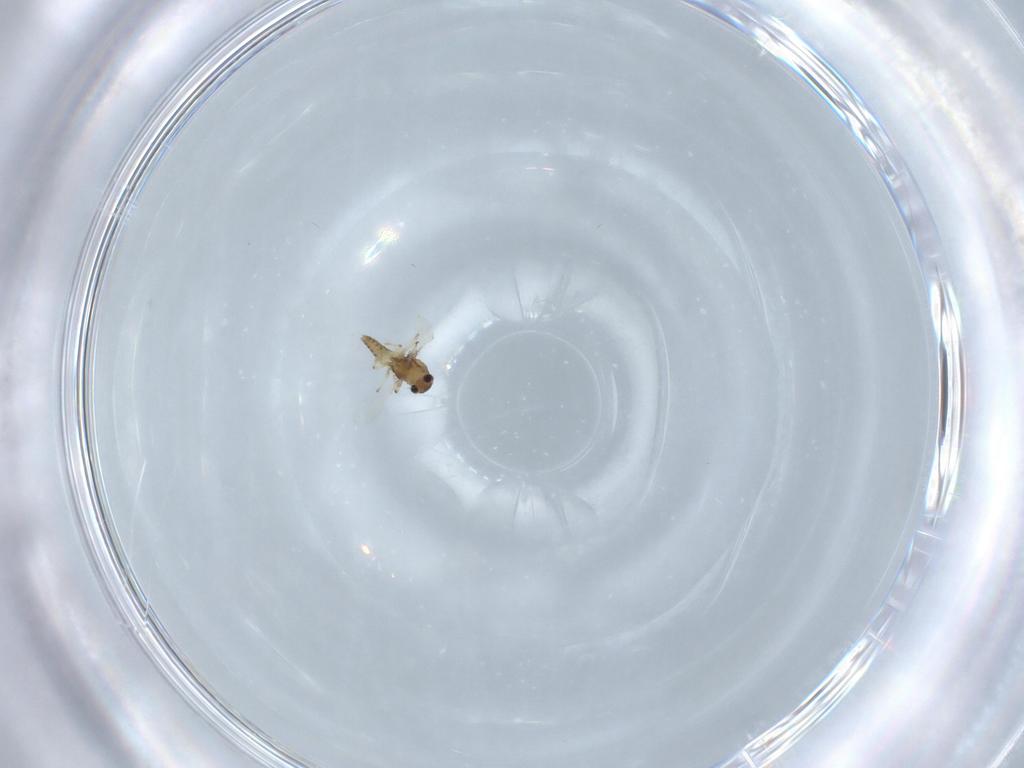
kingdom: Animalia
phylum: Arthropoda
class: Insecta
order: Diptera
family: Chironomidae
